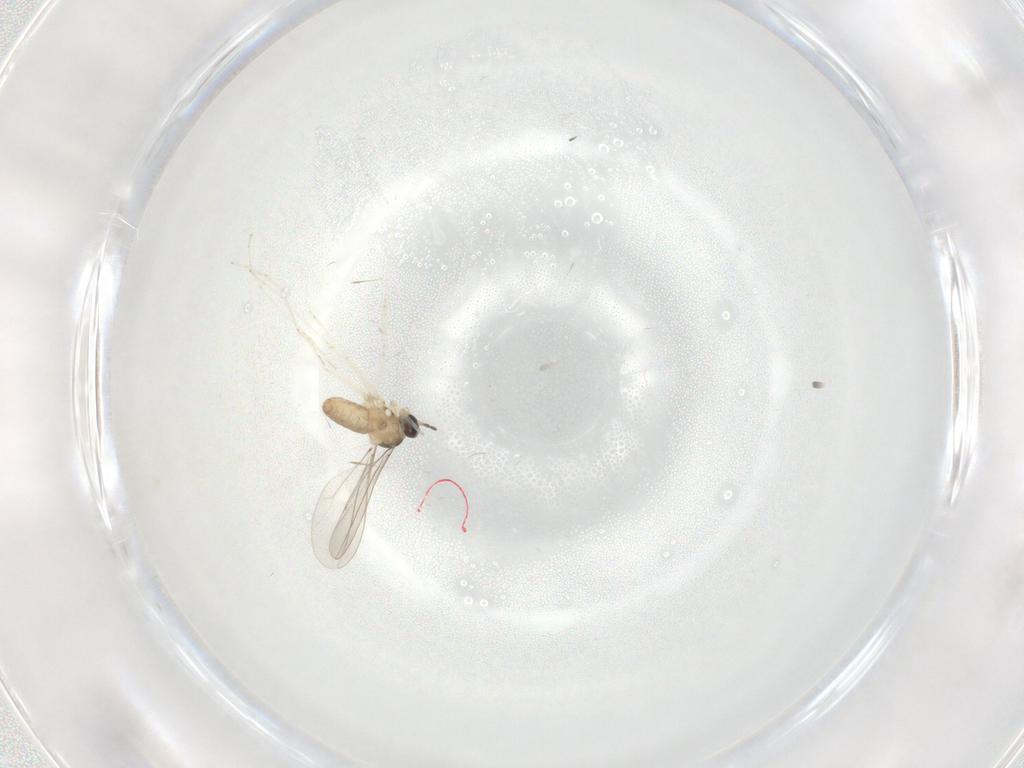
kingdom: Animalia
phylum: Arthropoda
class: Insecta
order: Diptera
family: Cecidomyiidae
